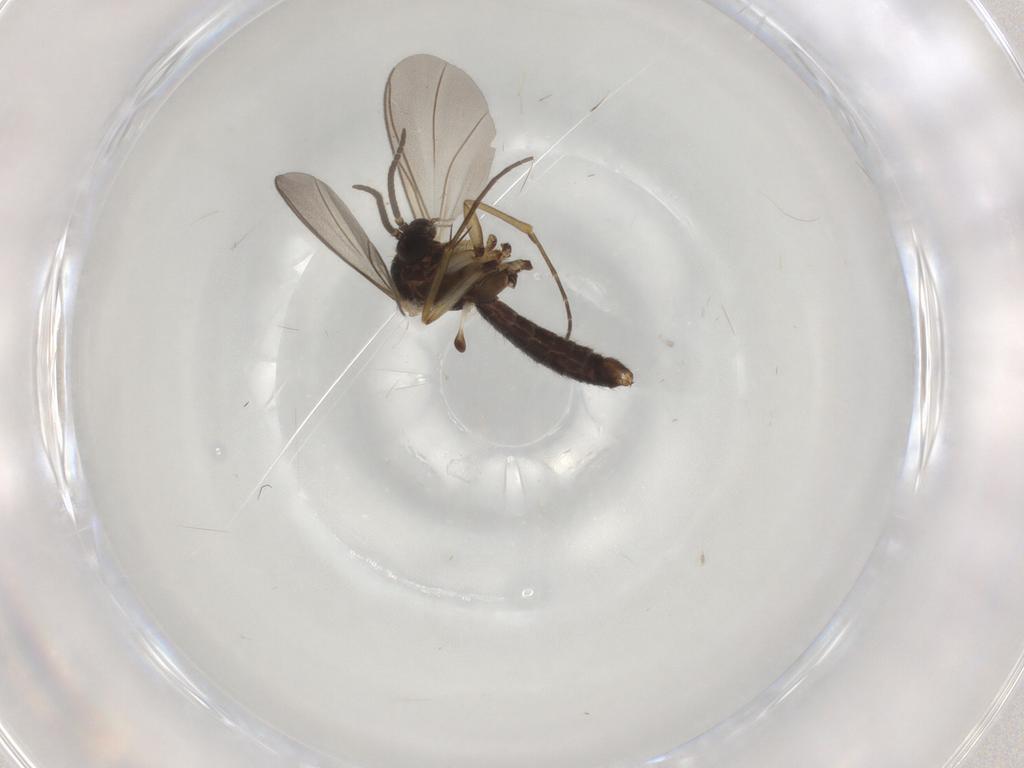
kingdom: Animalia
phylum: Arthropoda
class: Insecta
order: Diptera
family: Mycetophilidae
